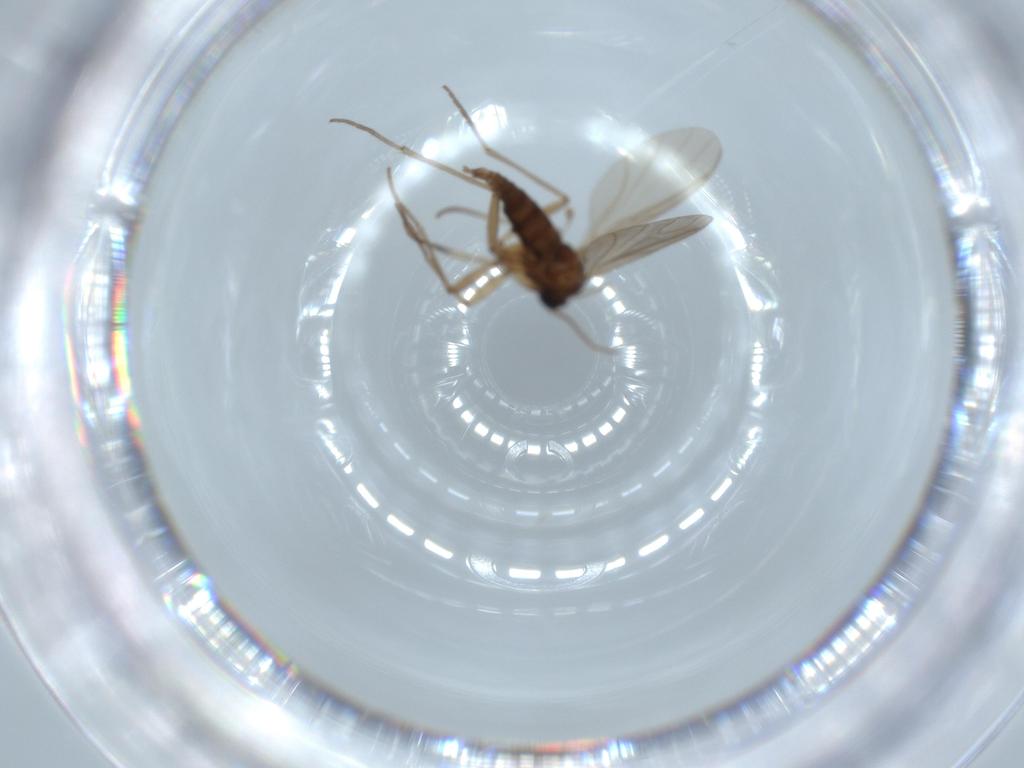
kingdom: Animalia
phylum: Arthropoda
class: Insecta
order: Diptera
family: Sciaridae
